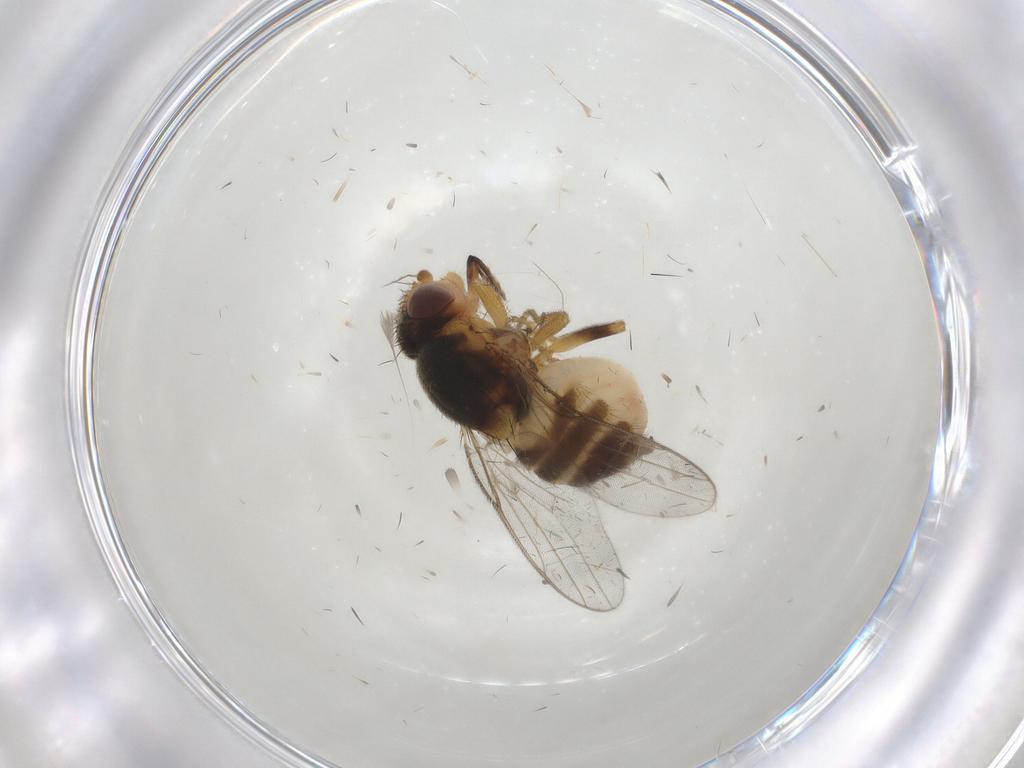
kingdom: Animalia
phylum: Arthropoda
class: Insecta
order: Diptera
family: Chloropidae
